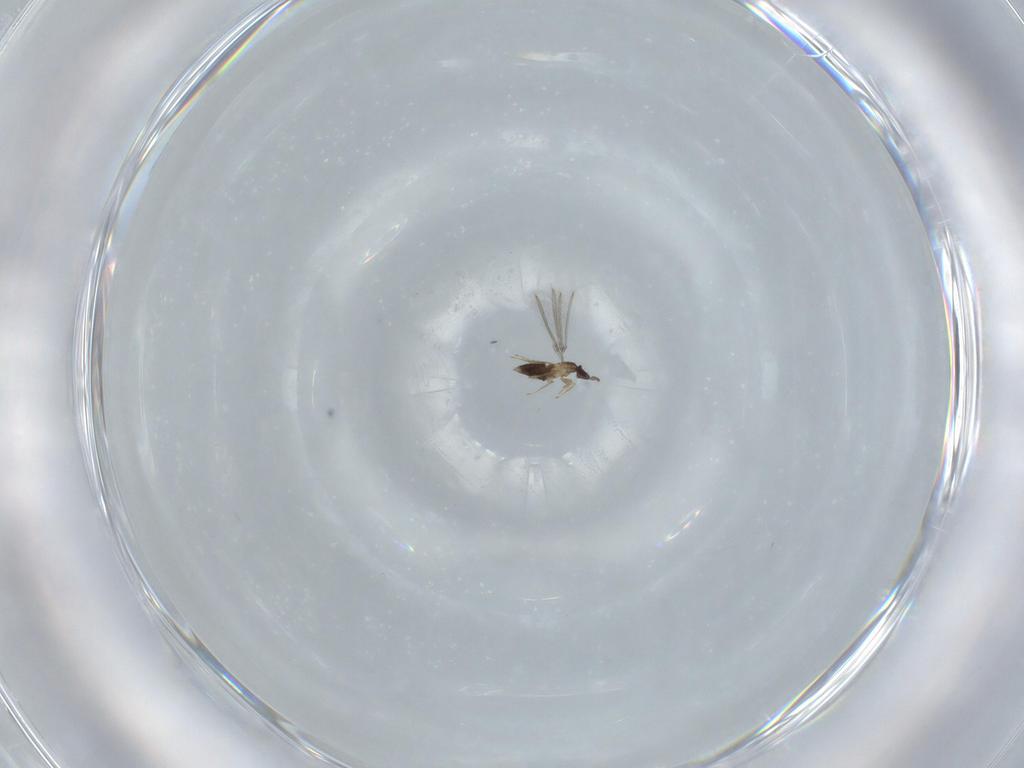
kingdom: Animalia
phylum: Arthropoda
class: Insecta
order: Hymenoptera
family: Mymaridae
